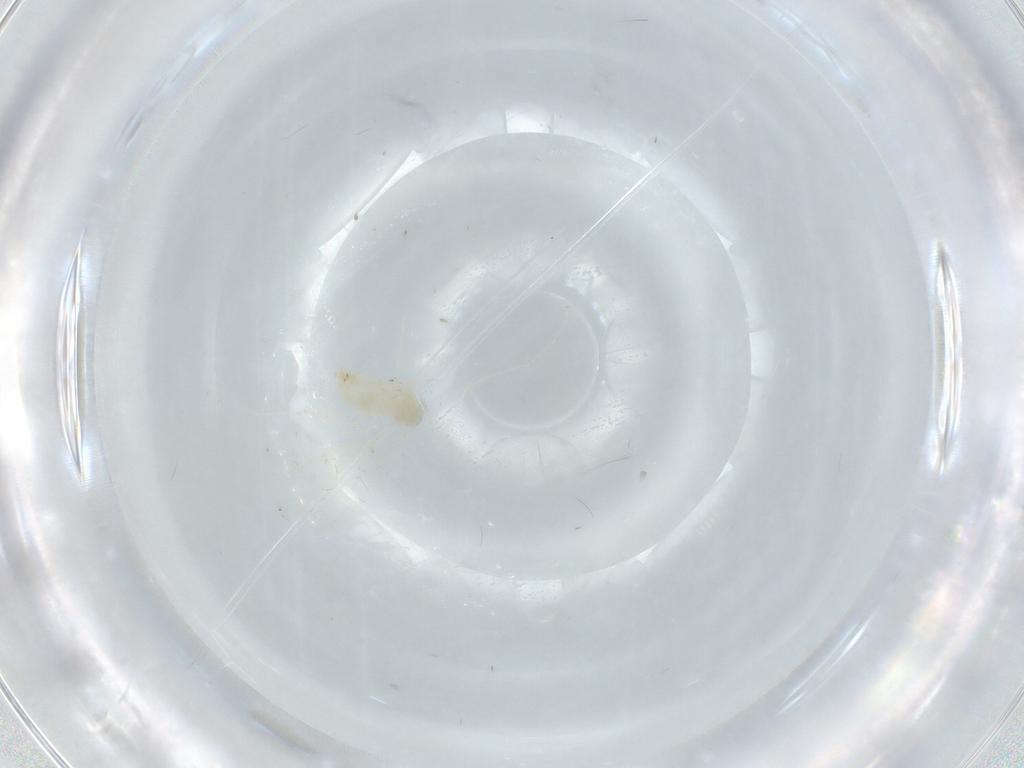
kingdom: Animalia
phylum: Arthropoda
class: Insecta
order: Diptera
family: Cecidomyiidae
